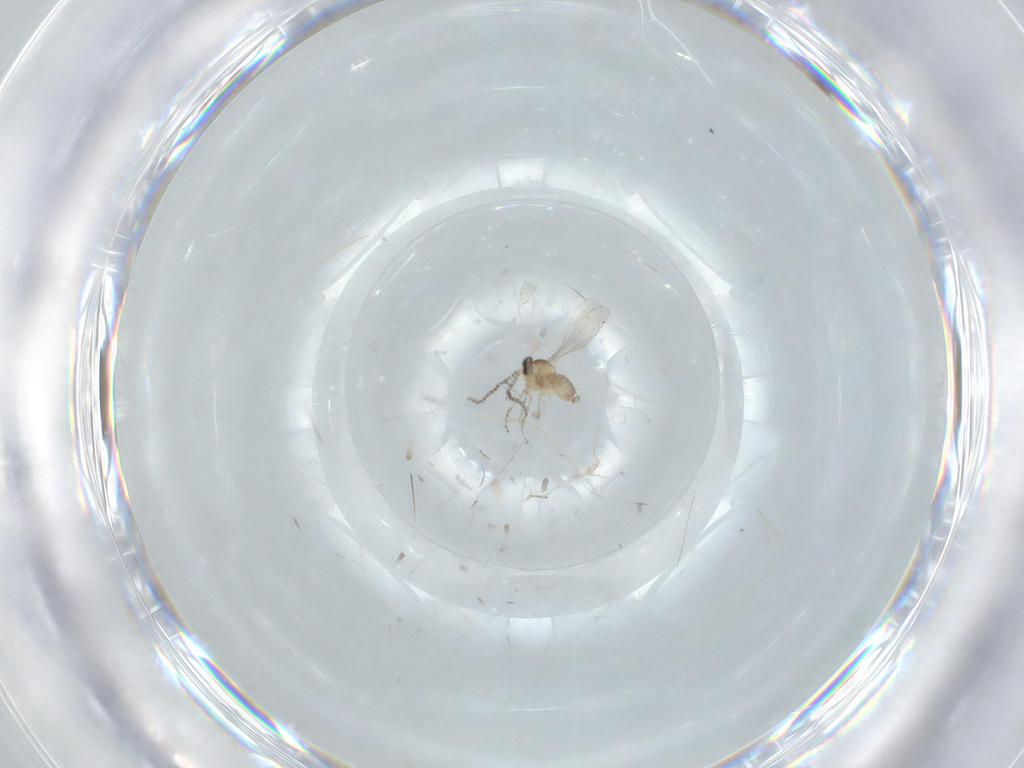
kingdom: Animalia
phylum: Arthropoda
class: Insecta
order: Diptera
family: Cecidomyiidae
